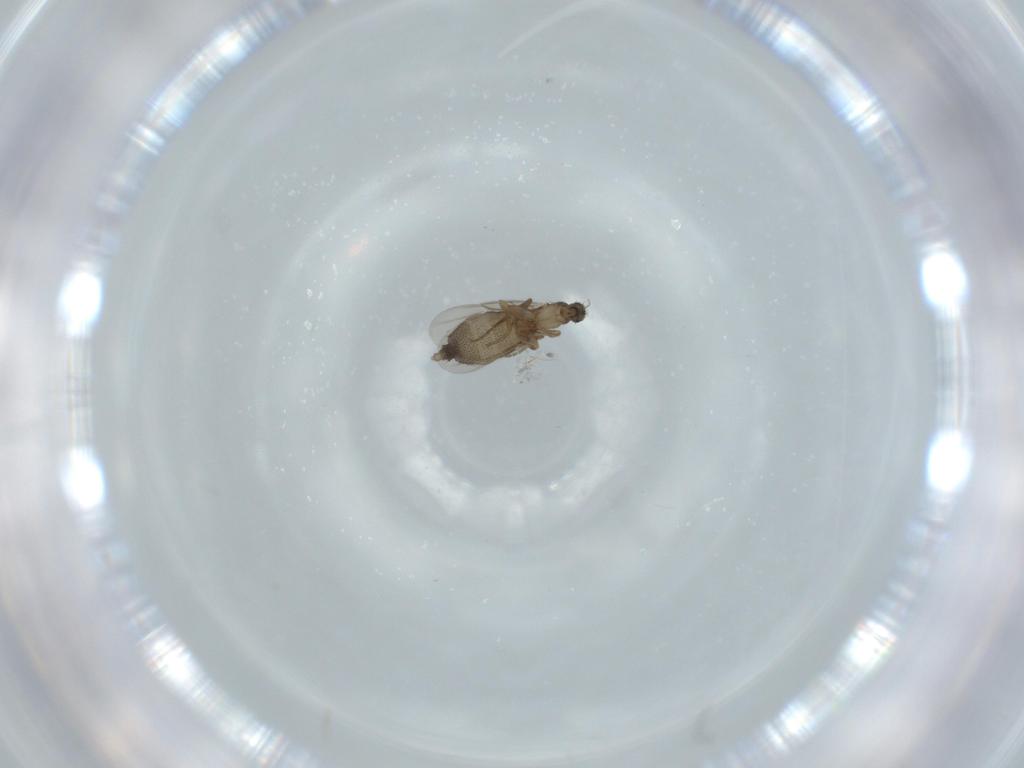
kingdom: Animalia
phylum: Arthropoda
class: Insecta
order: Diptera
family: Phoridae
